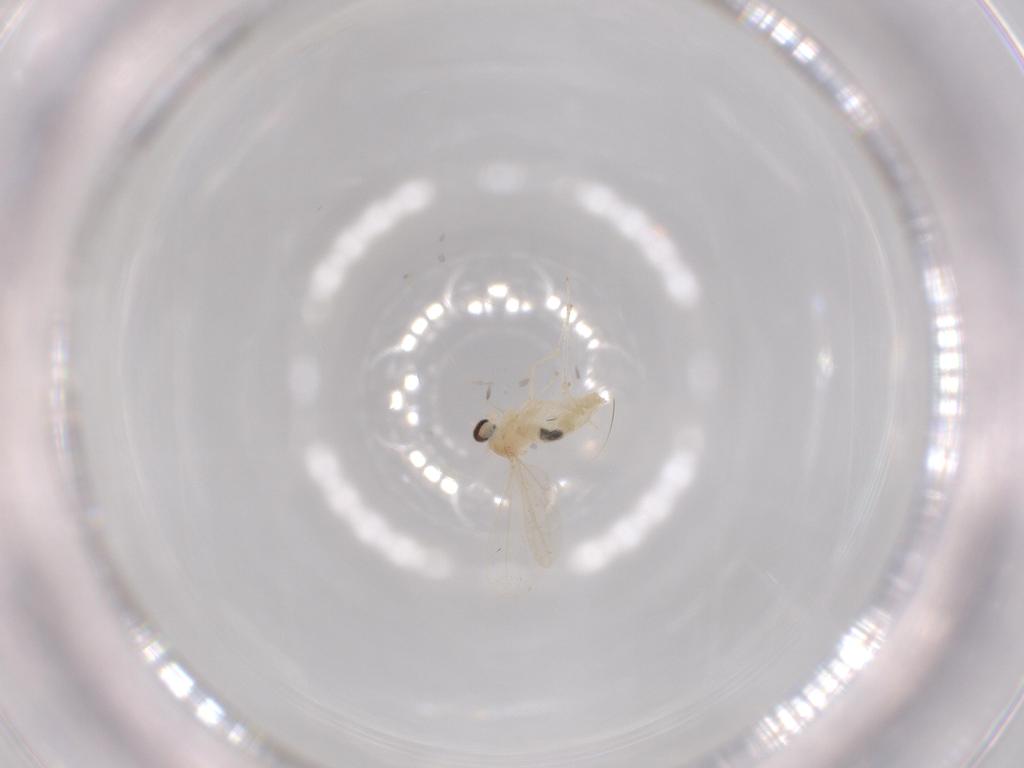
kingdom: Animalia
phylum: Arthropoda
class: Insecta
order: Diptera
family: Cecidomyiidae
